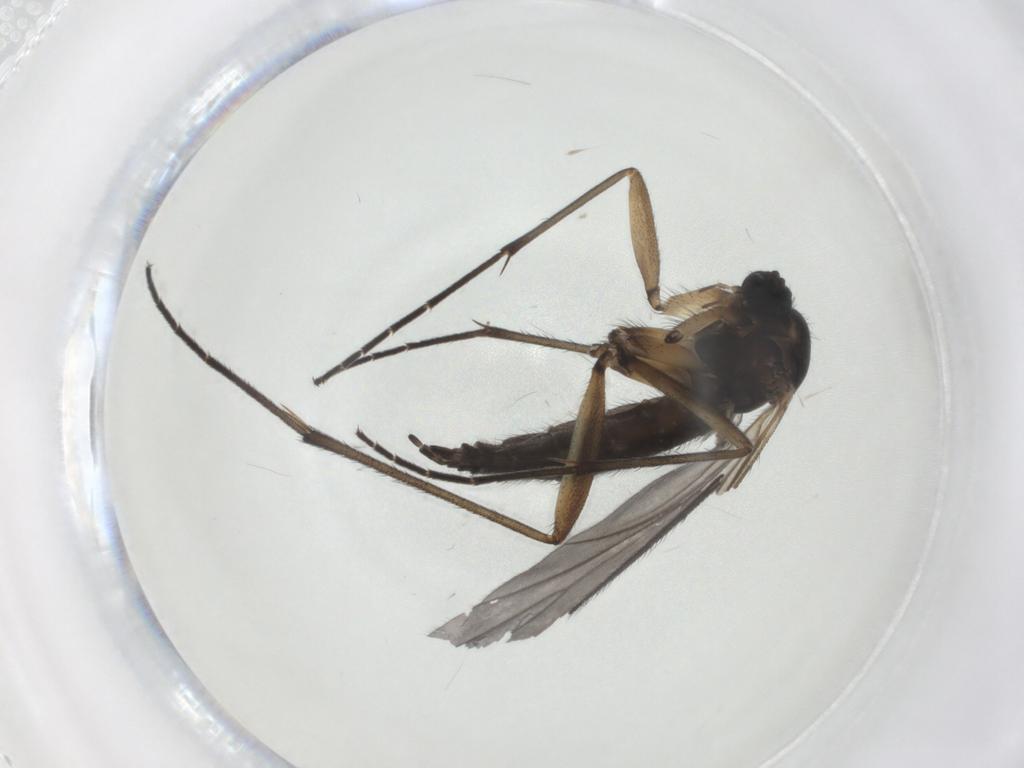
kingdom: Animalia
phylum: Arthropoda
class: Insecta
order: Diptera
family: Sciaridae
